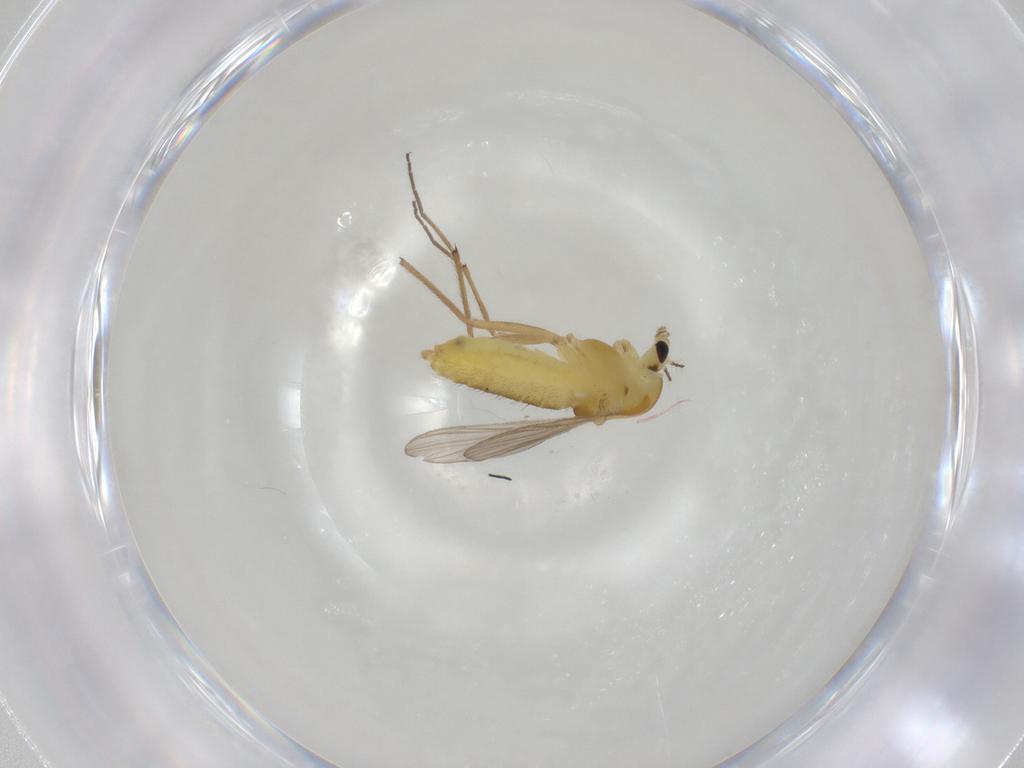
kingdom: Animalia
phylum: Arthropoda
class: Insecta
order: Diptera
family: Chironomidae
